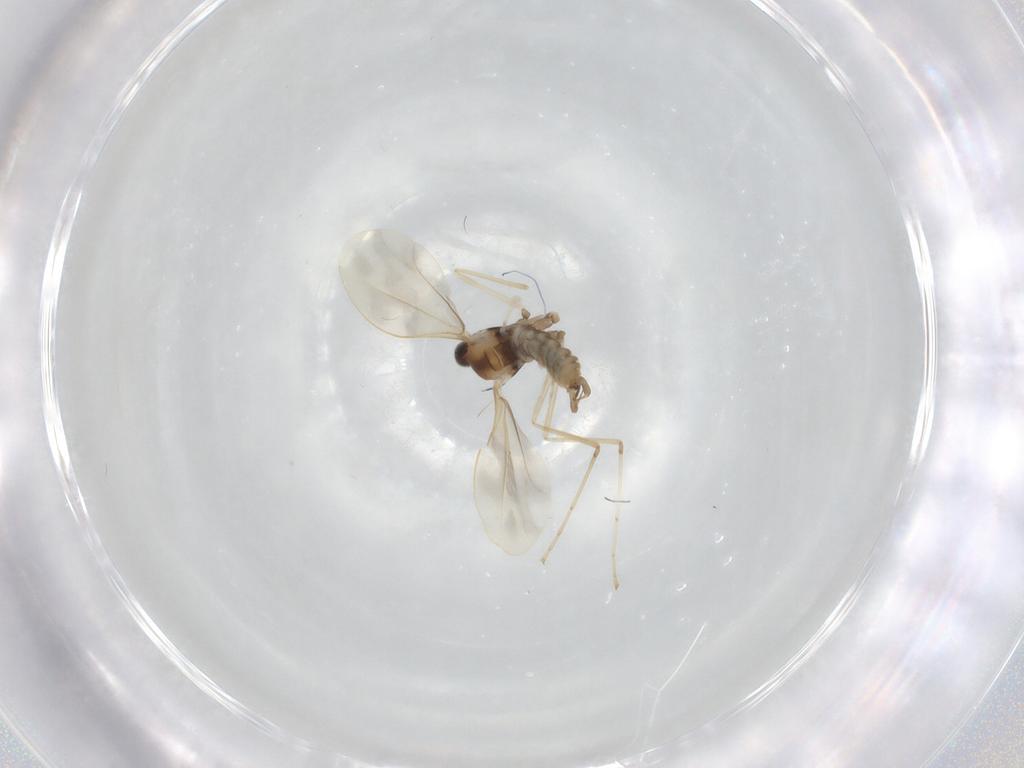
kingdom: Animalia
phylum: Arthropoda
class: Insecta
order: Diptera
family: Cecidomyiidae
